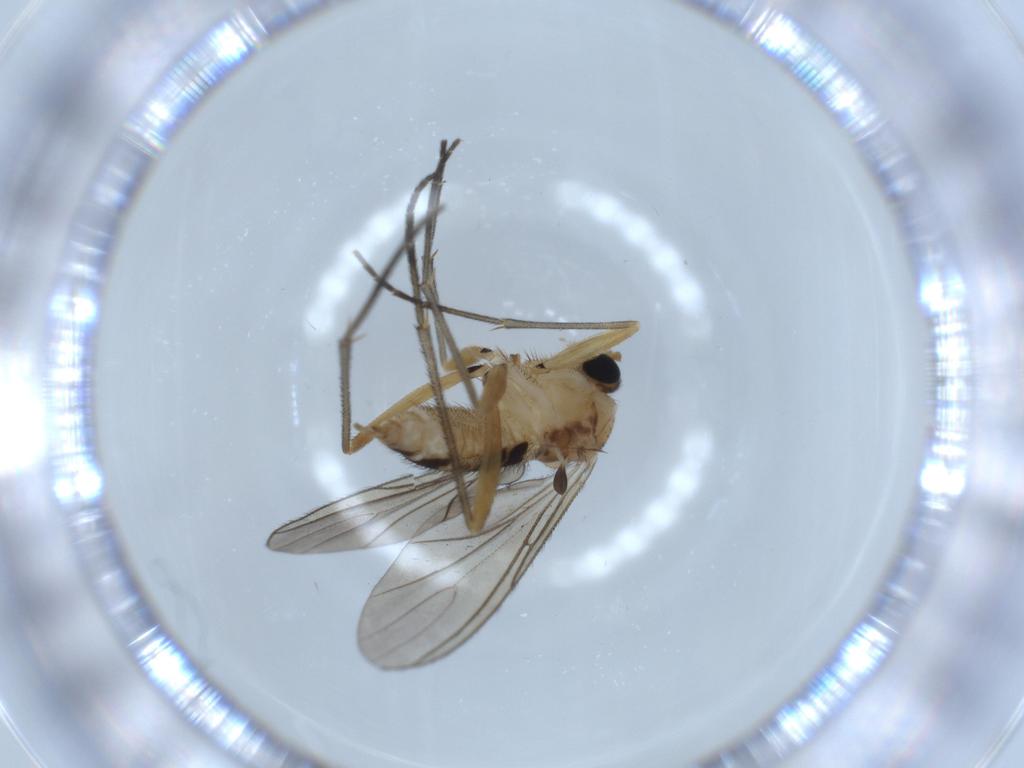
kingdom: Animalia
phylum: Arthropoda
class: Insecta
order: Diptera
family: Sciaridae
